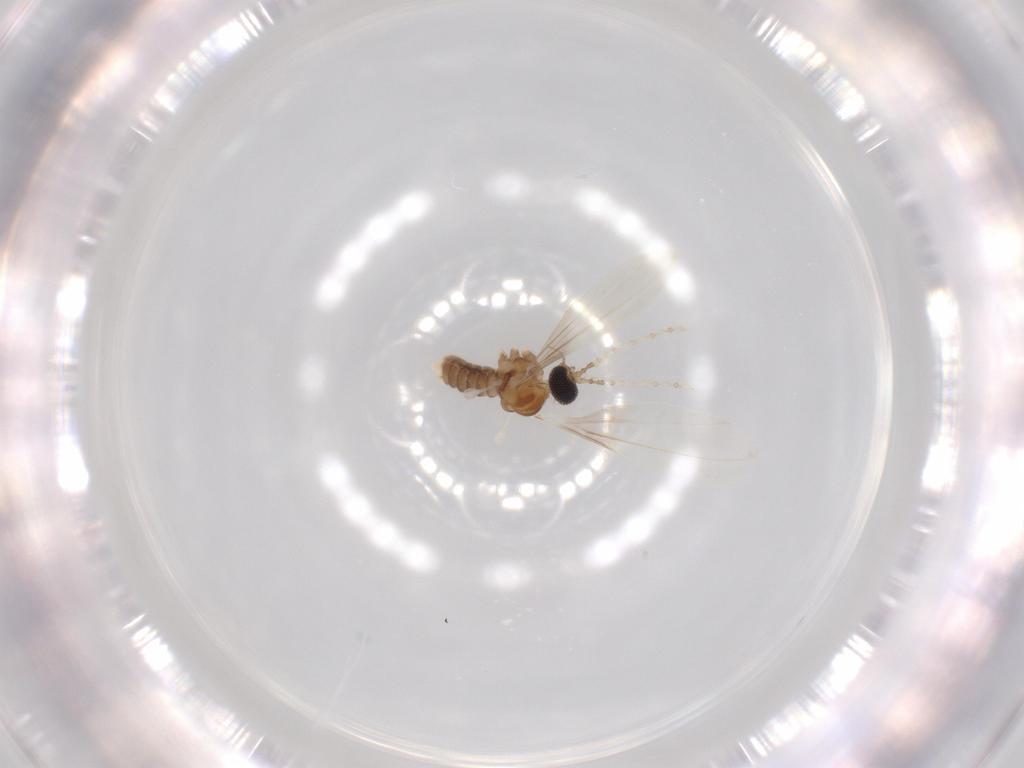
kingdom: Animalia
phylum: Arthropoda
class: Insecta
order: Diptera
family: Cecidomyiidae
